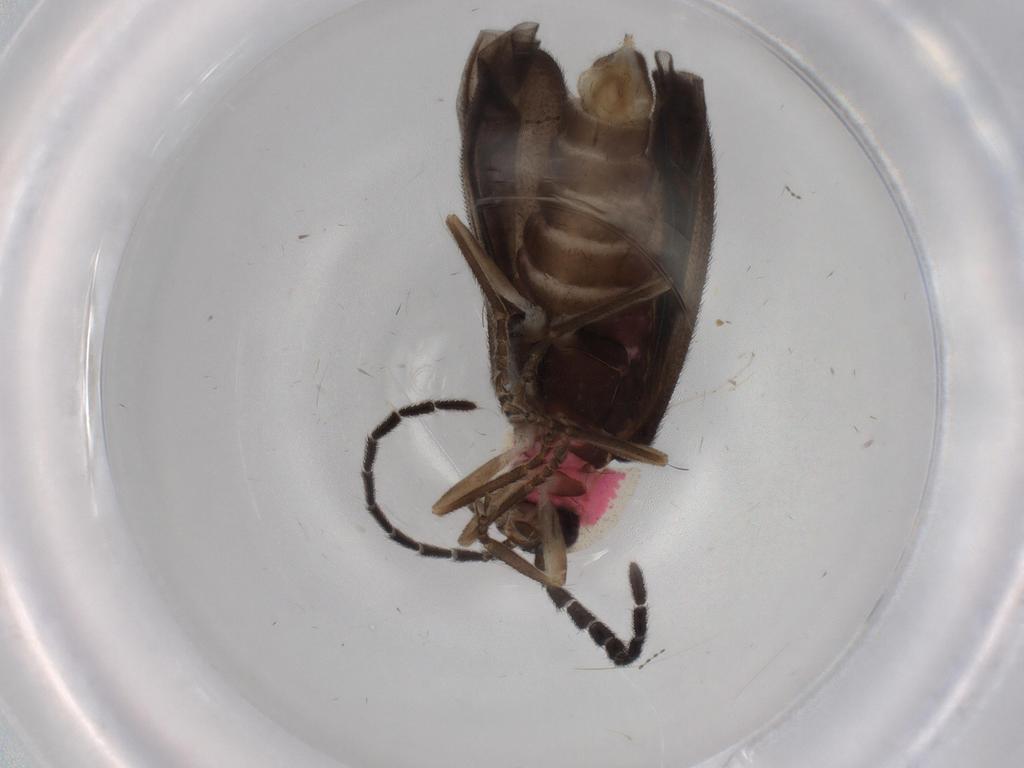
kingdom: Animalia
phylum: Arthropoda
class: Insecta
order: Coleoptera
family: Lampyridae
